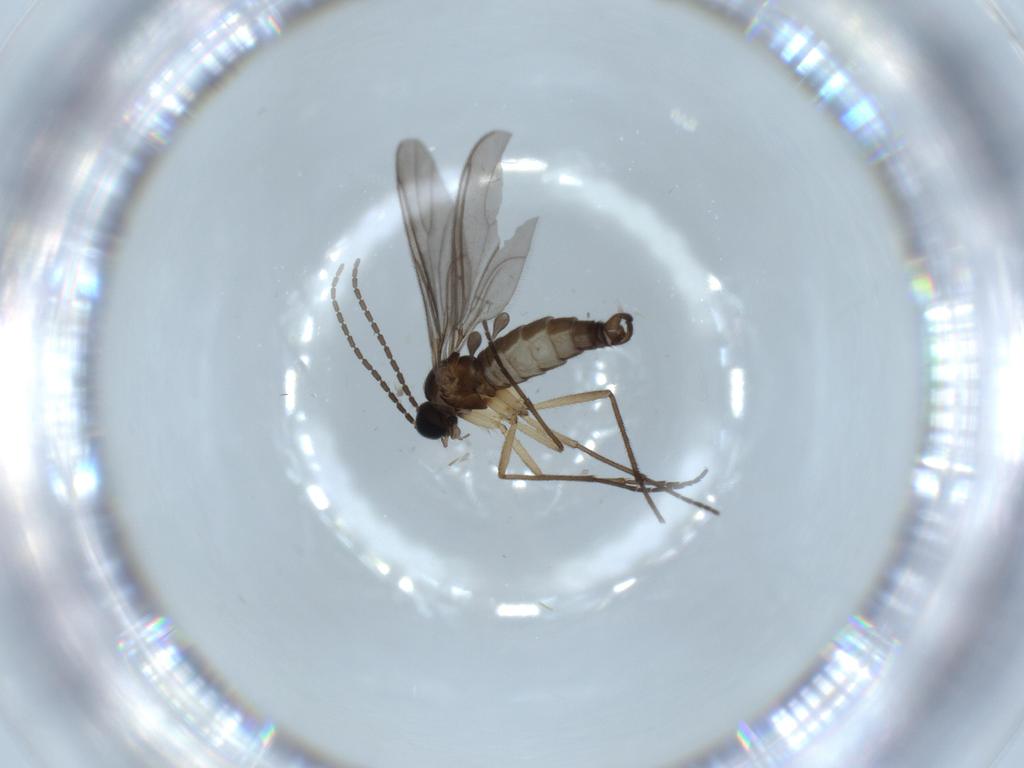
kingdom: Animalia
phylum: Arthropoda
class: Insecta
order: Diptera
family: Sciaridae
